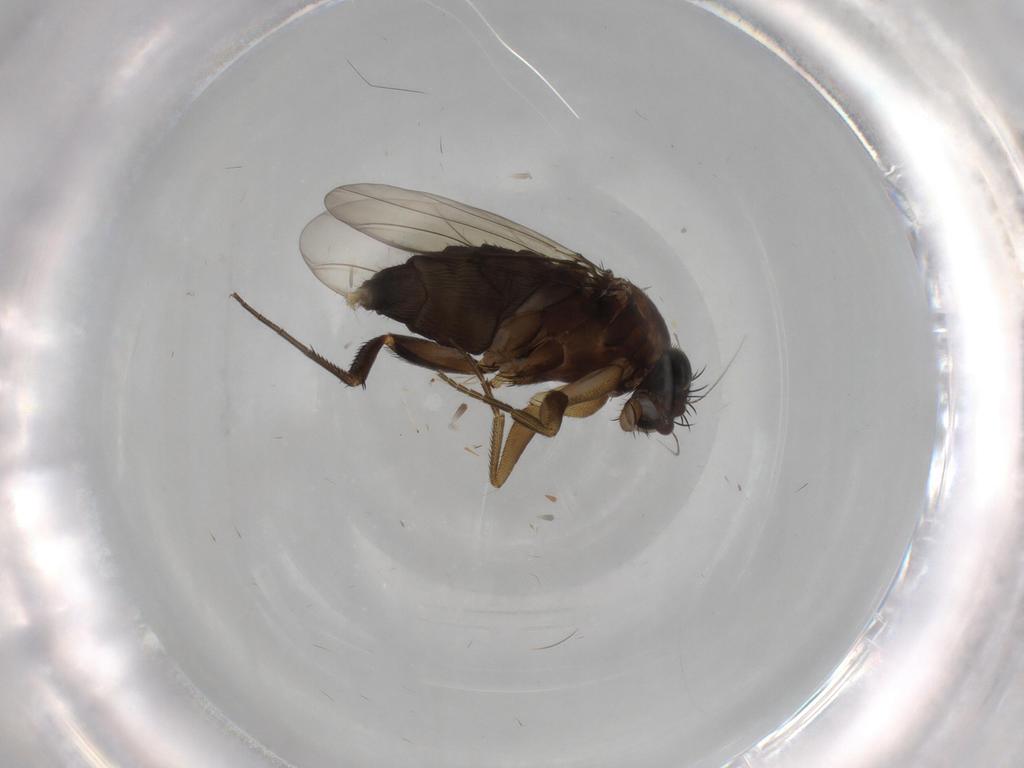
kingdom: Animalia
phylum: Arthropoda
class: Insecta
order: Diptera
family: Phoridae
